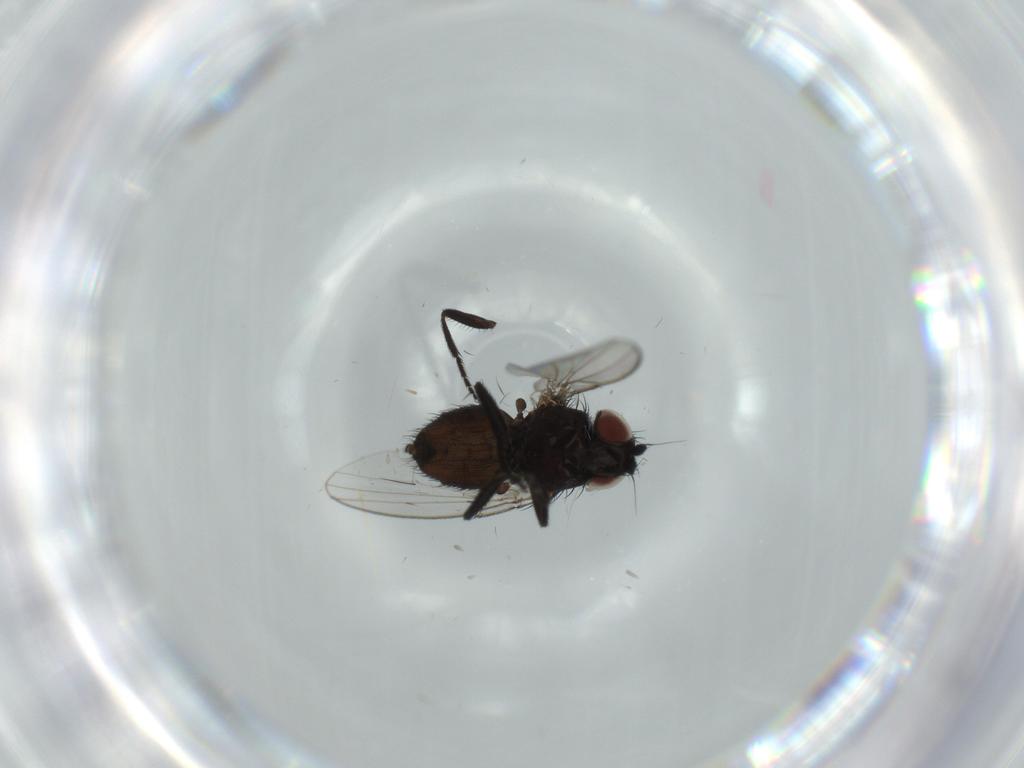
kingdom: Animalia
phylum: Arthropoda
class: Insecta
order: Diptera
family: Milichiidae
